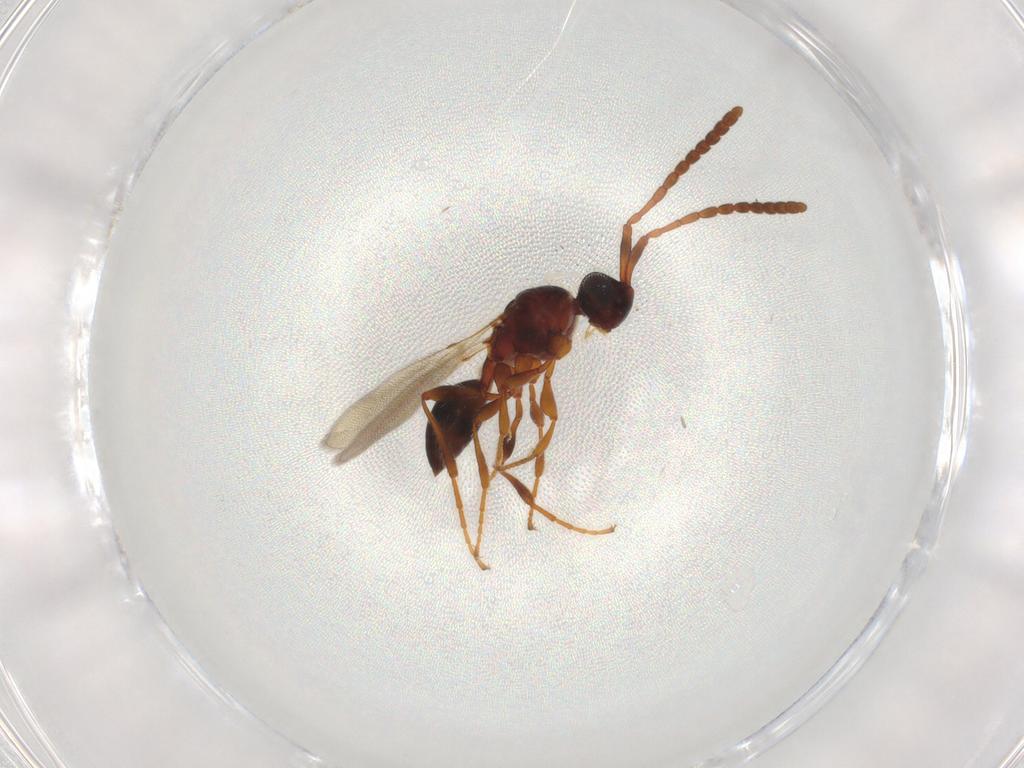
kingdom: Animalia
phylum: Arthropoda
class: Insecta
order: Hymenoptera
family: Diapriidae
